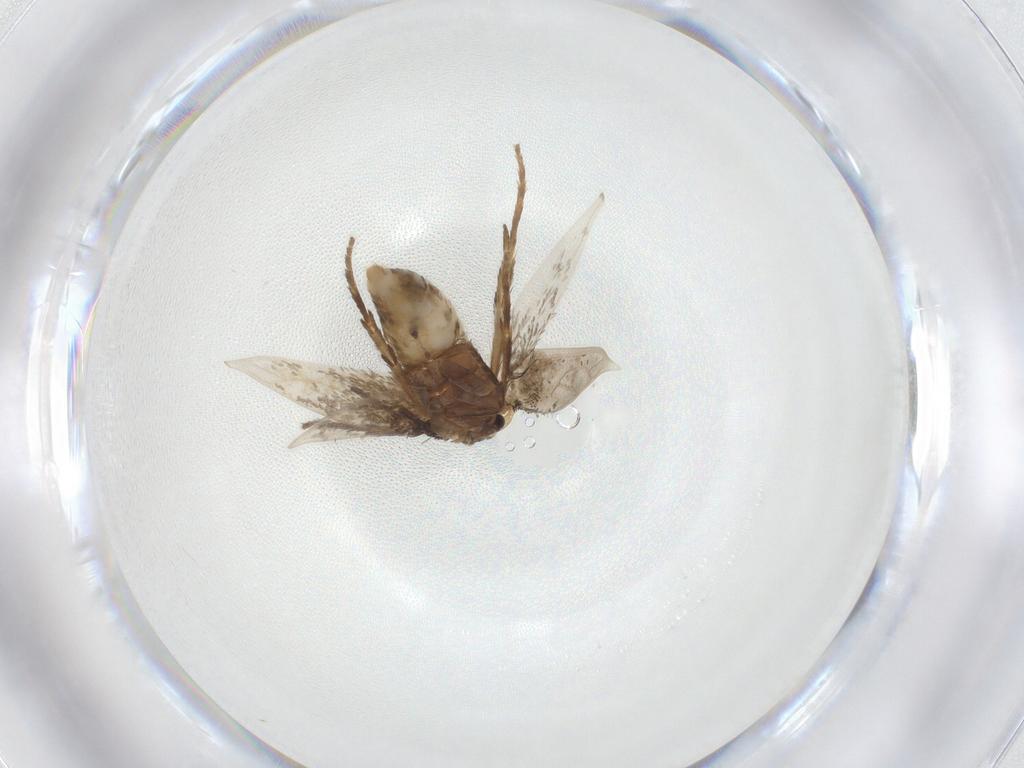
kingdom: Animalia
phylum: Arthropoda
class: Insecta
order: Lepidoptera
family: Nepticulidae
